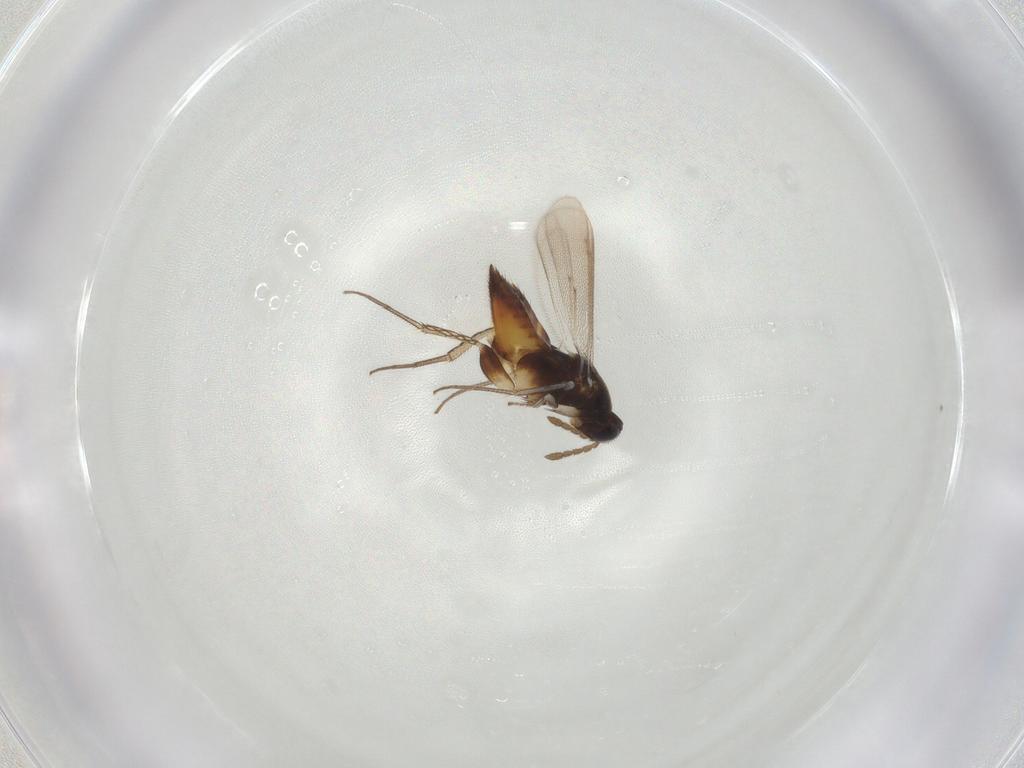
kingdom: Animalia
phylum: Arthropoda
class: Insecta
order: Hymenoptera
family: Eulophidae
